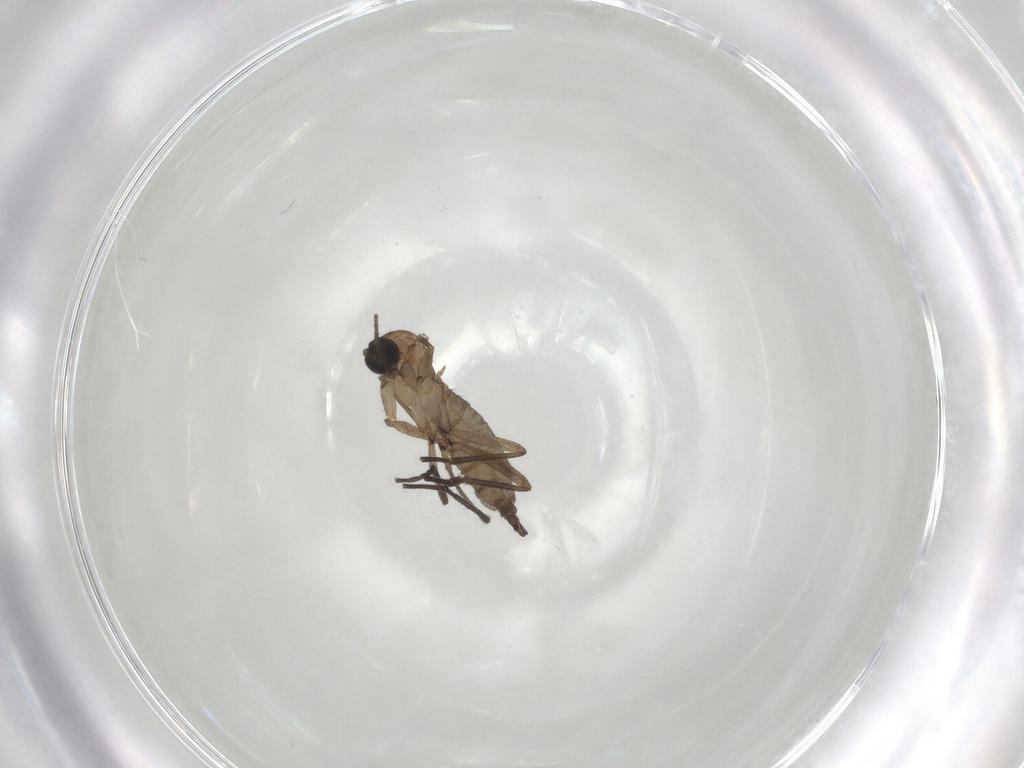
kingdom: Animalia
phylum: Arthropoda
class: Insecta
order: Diptera
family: Sciaridae
